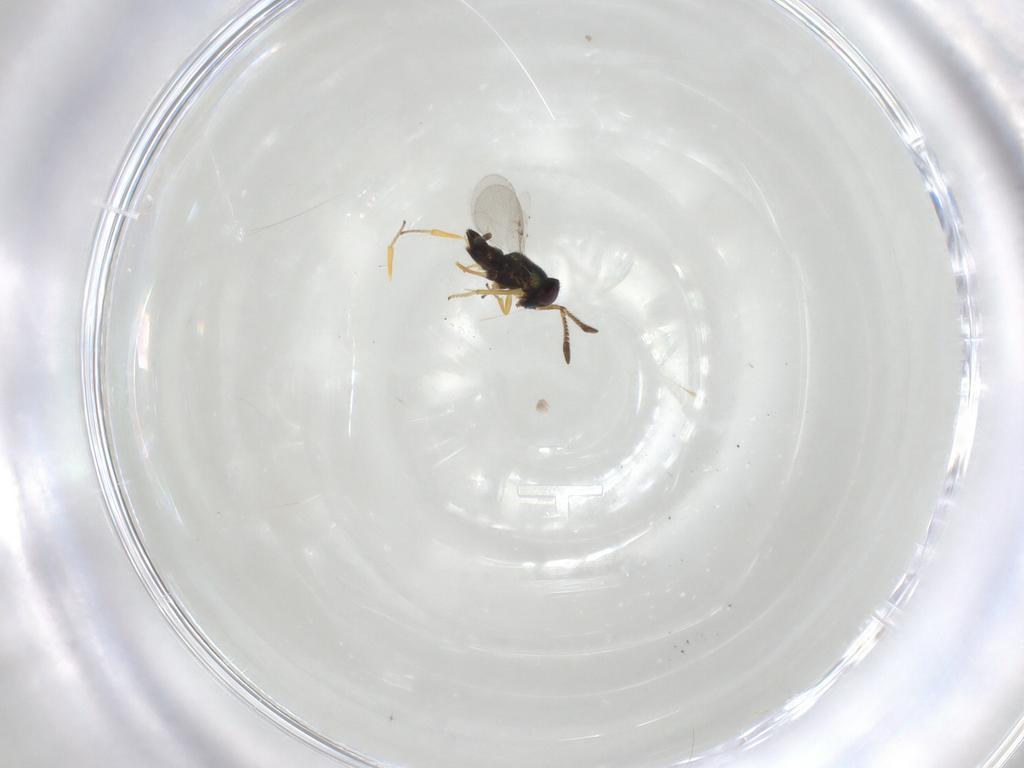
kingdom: Animalia
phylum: Arthropoda
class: Insecta
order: Hymenoptera
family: Encyrtidae
